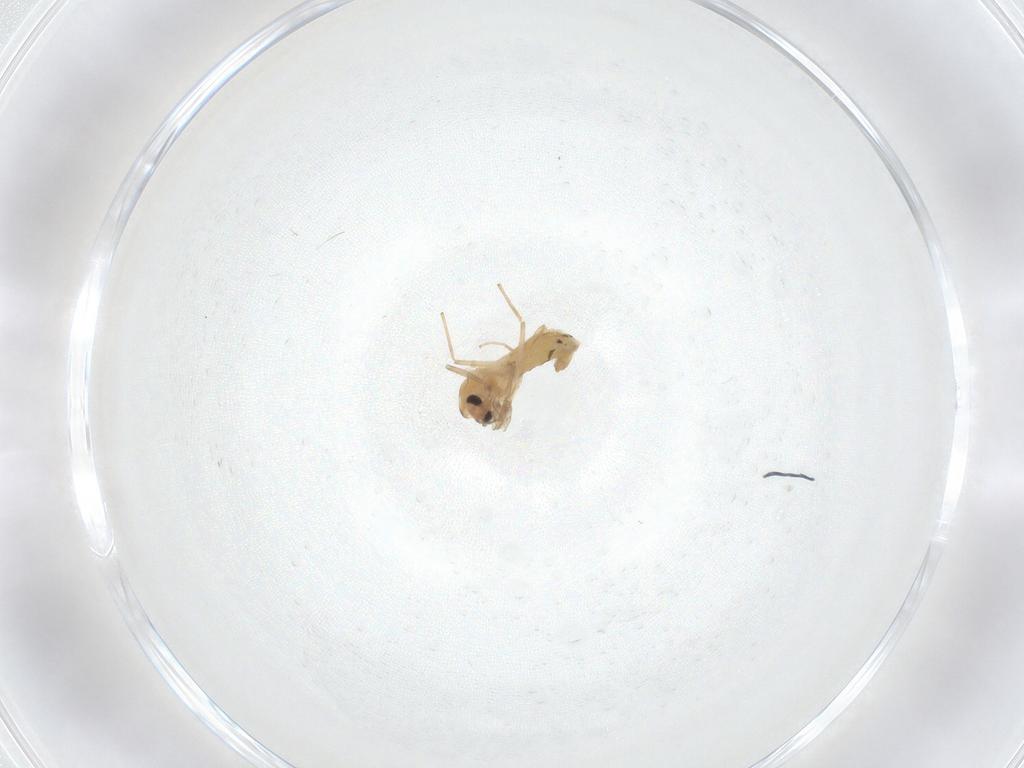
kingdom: Animalia
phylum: Arthropoda
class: Insecta
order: Diptera
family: Chironomidae
